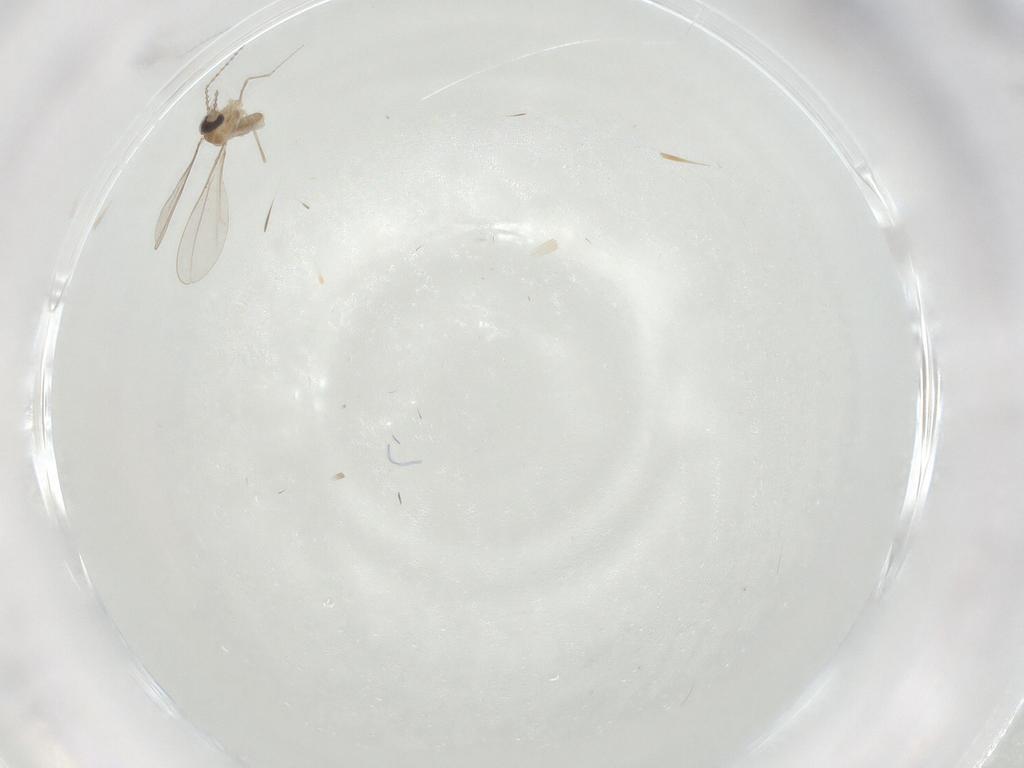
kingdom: Animalia
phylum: Arthropoda
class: Insecta
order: Diptera
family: Cecidomyiidae
